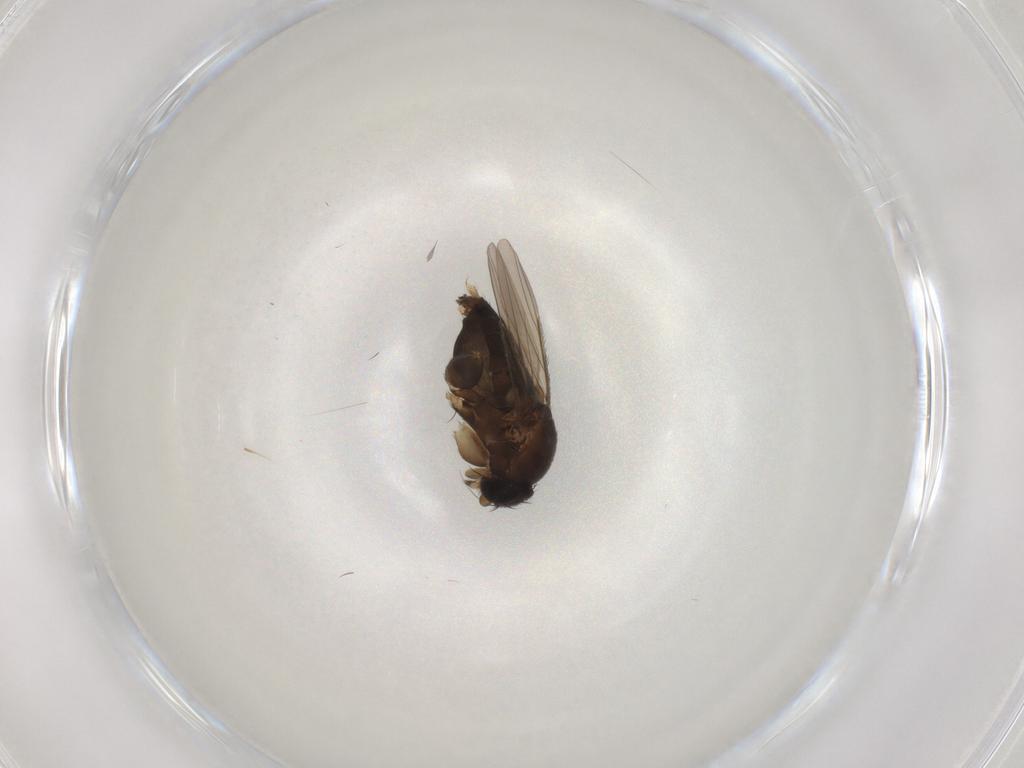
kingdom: Animalia
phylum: Arthropoda
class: Insecta
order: Diptera
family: Phoridae
